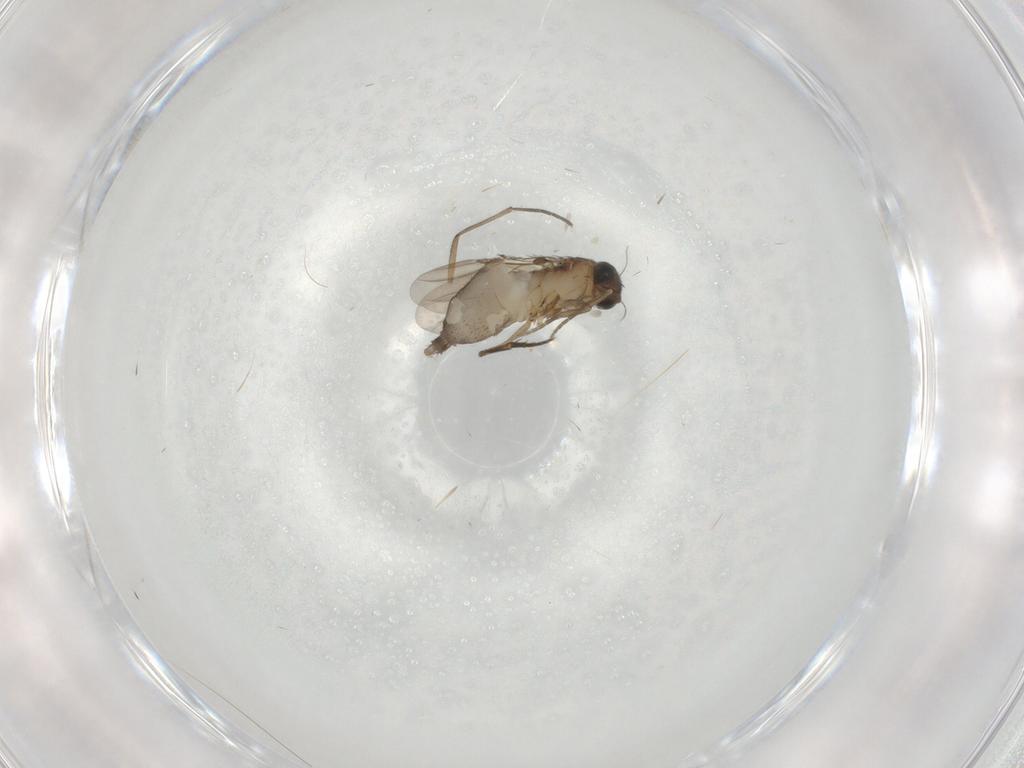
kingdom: Animalia
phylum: Arthropoda
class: Insecta
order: Diptera
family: Phoridae
